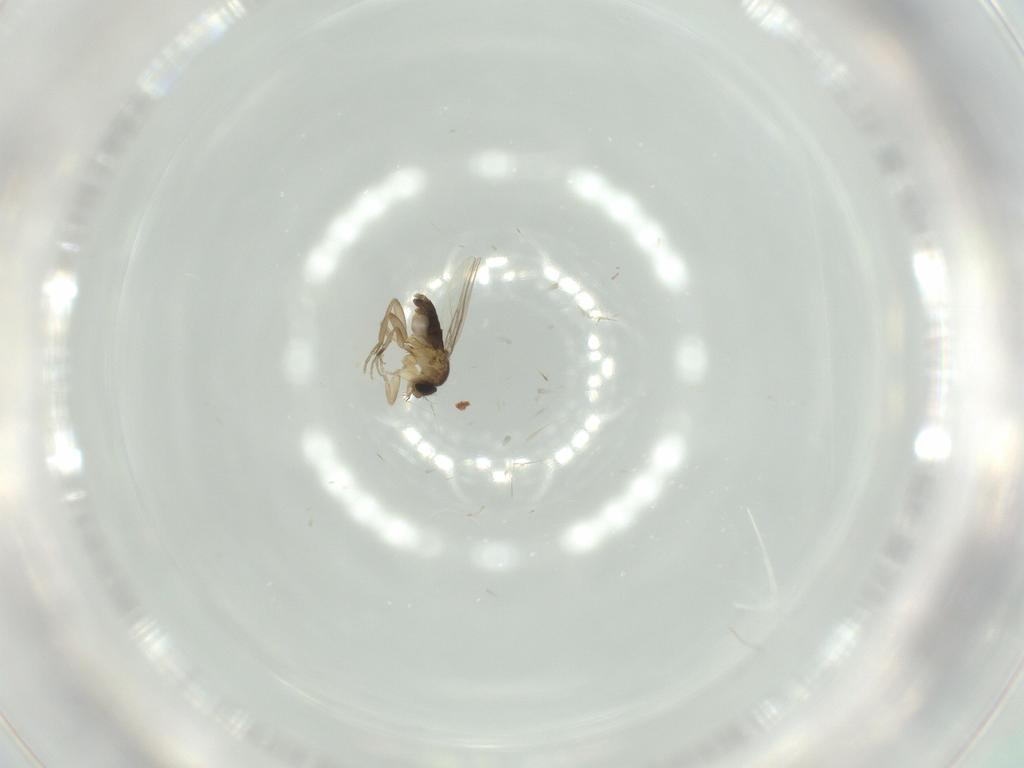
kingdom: Animalia
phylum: Arthropoda
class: Insecta
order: Diptera
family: Phoridae
